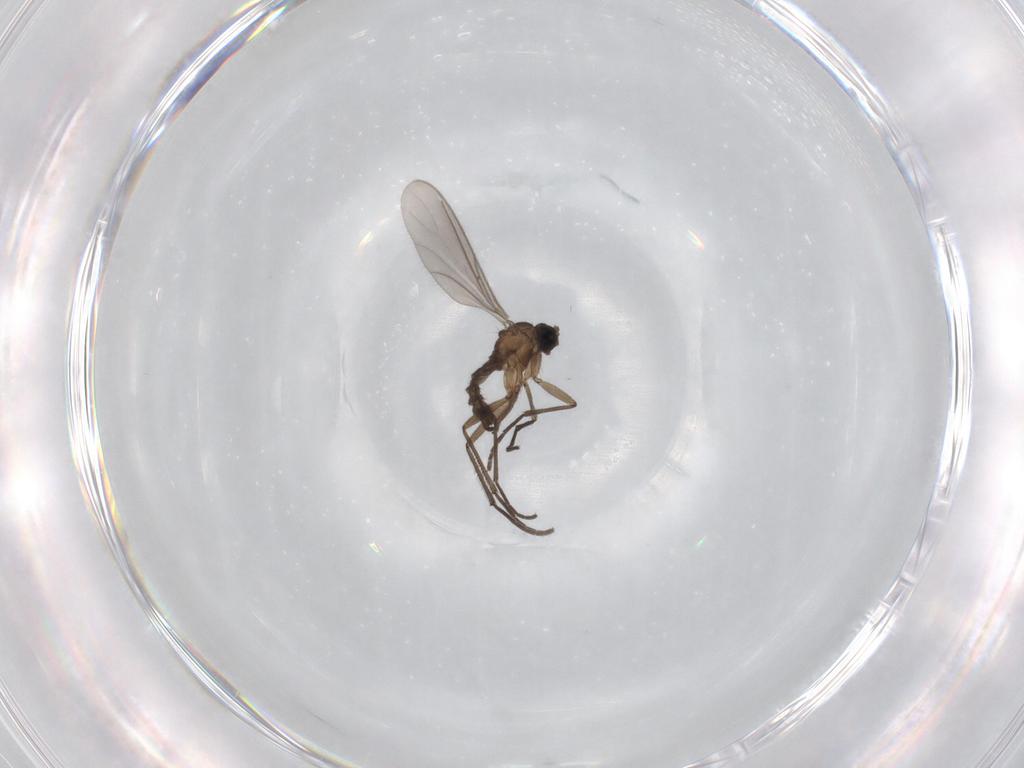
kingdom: Animalia
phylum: Arthropoda
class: Insecta
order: Diptera
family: Sciaridae
